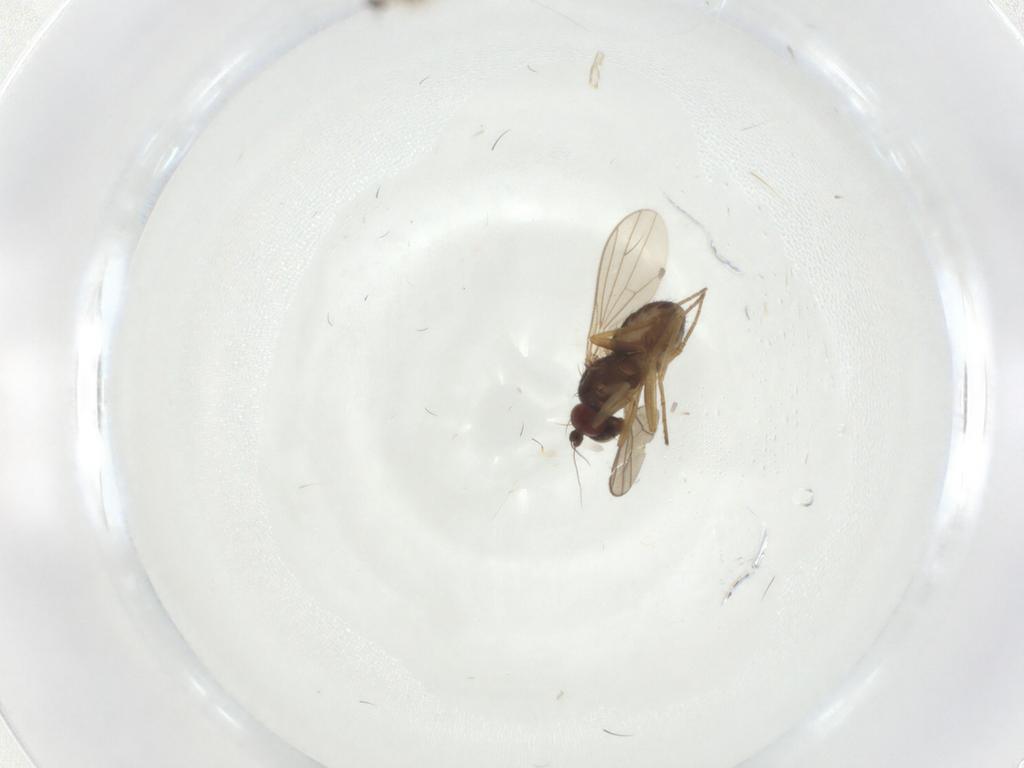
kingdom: Animalia
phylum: Arthropoda
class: Insecta
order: Diptera
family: Dolichopodidae
